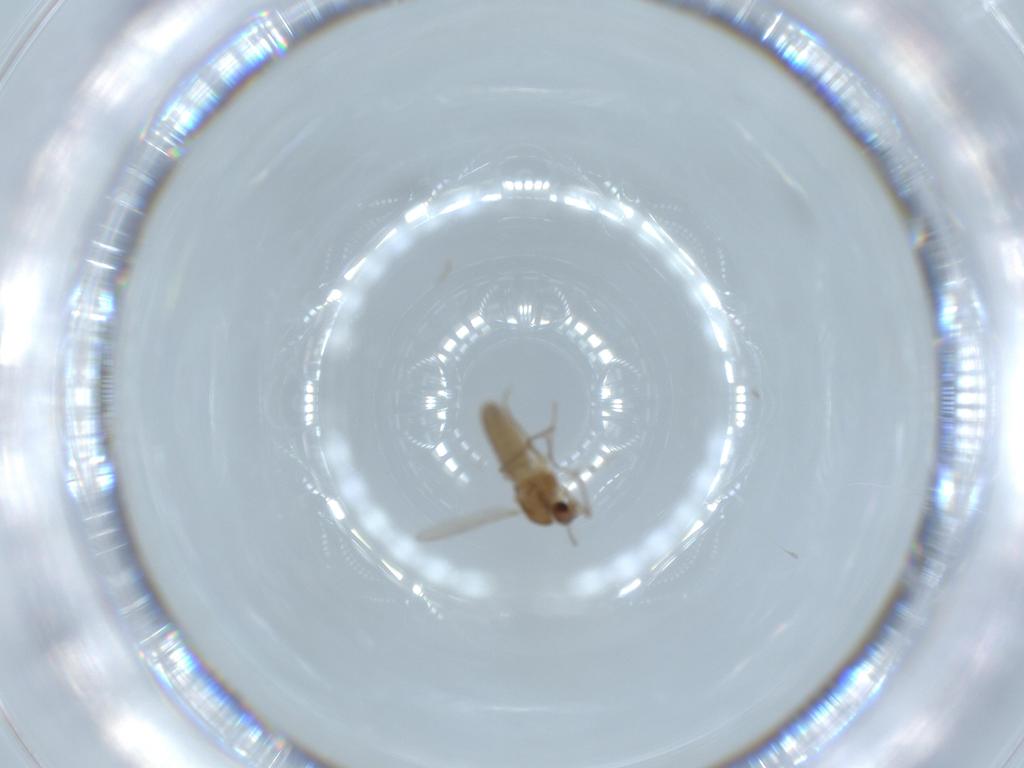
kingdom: Animalia
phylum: Arthropoda
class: Insecta
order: Diptera
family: Chironomidae
